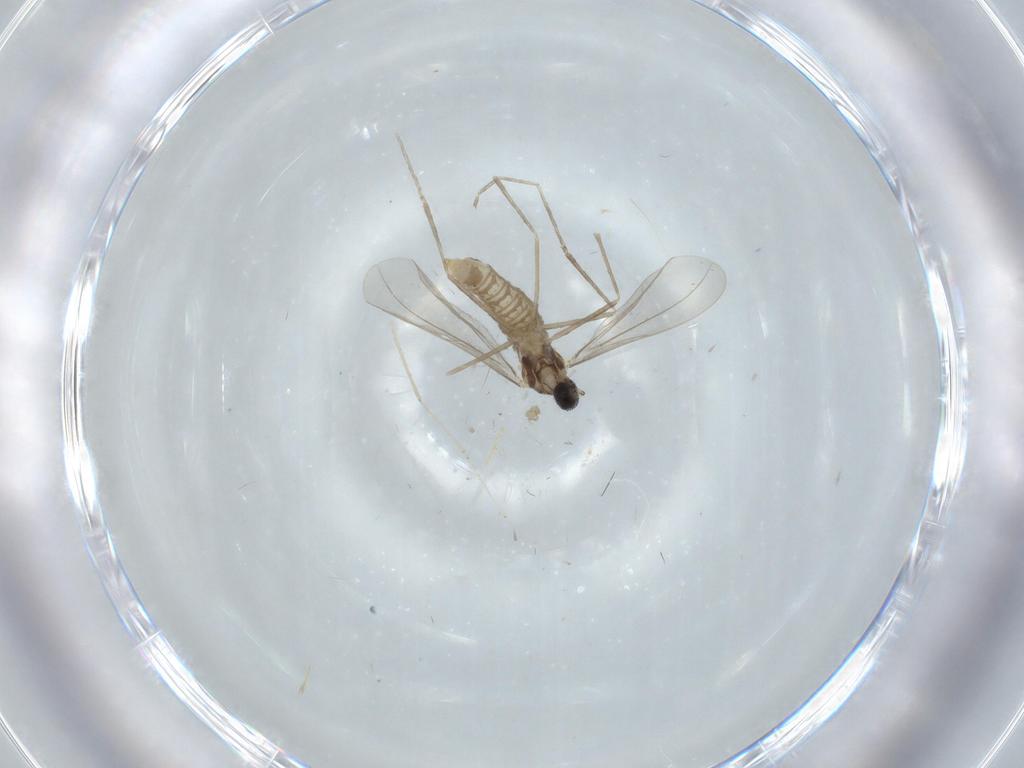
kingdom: Animalia
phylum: Arthropoda
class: Insecta
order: Diptera
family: Cecidomyiidae
